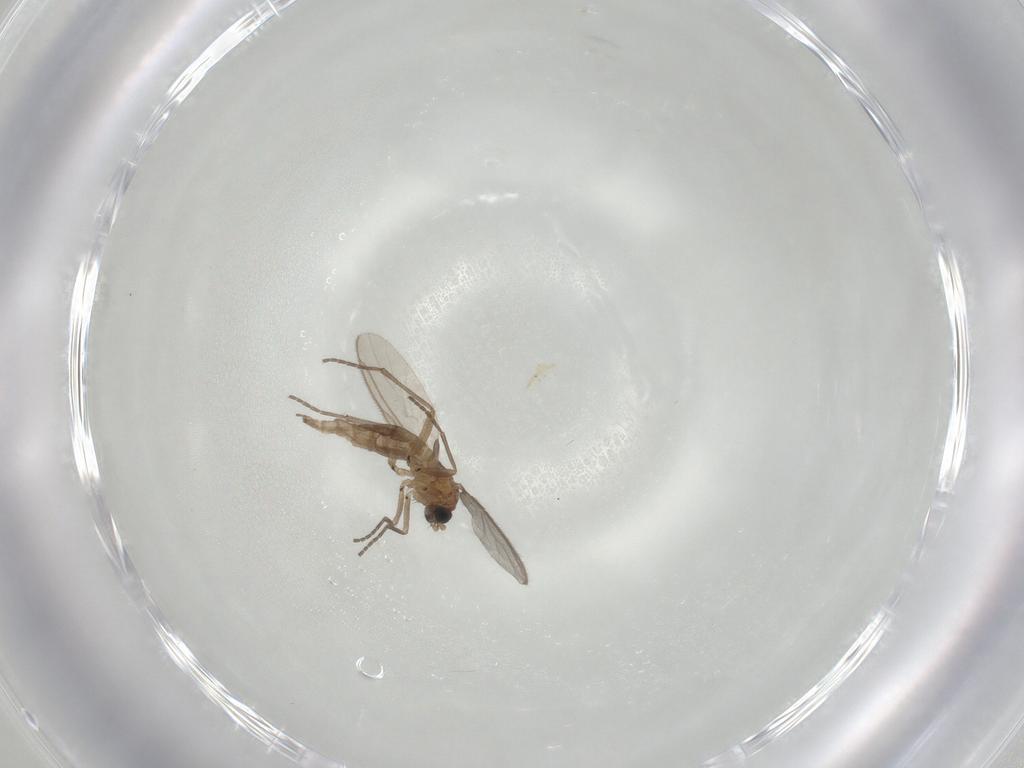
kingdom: Animalia
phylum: Arthropoda
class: Insecta
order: Diptera
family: Sciaridae
